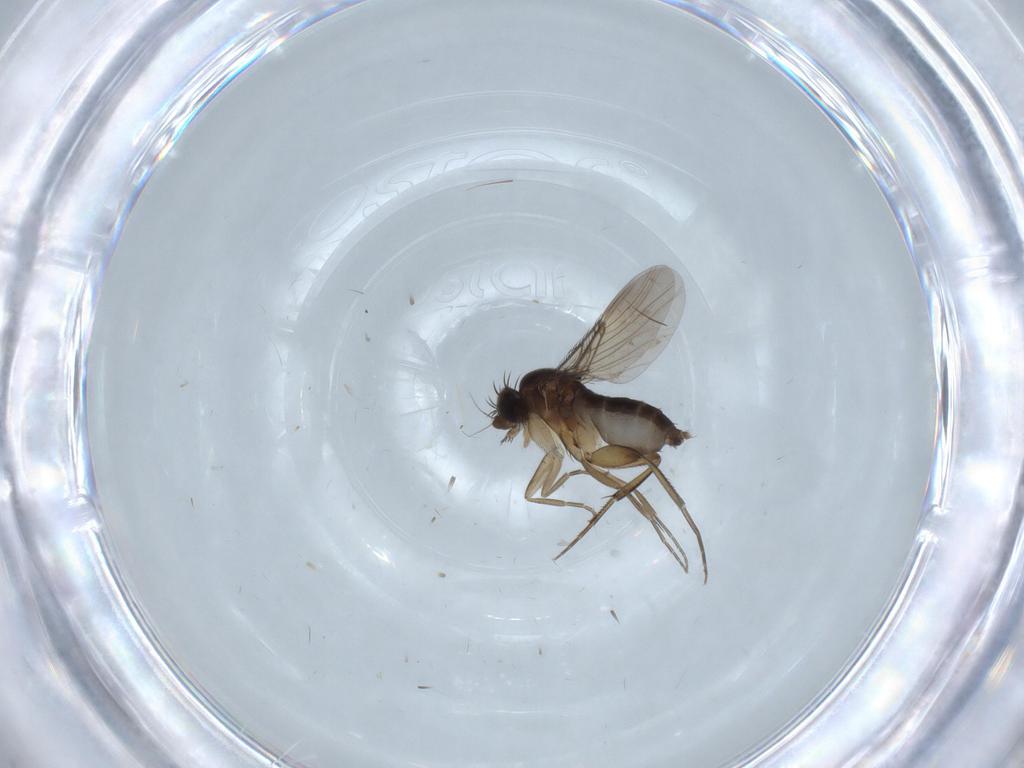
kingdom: Animalia
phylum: Arthropoda
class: Insecta
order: Diptera
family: Phoridae
